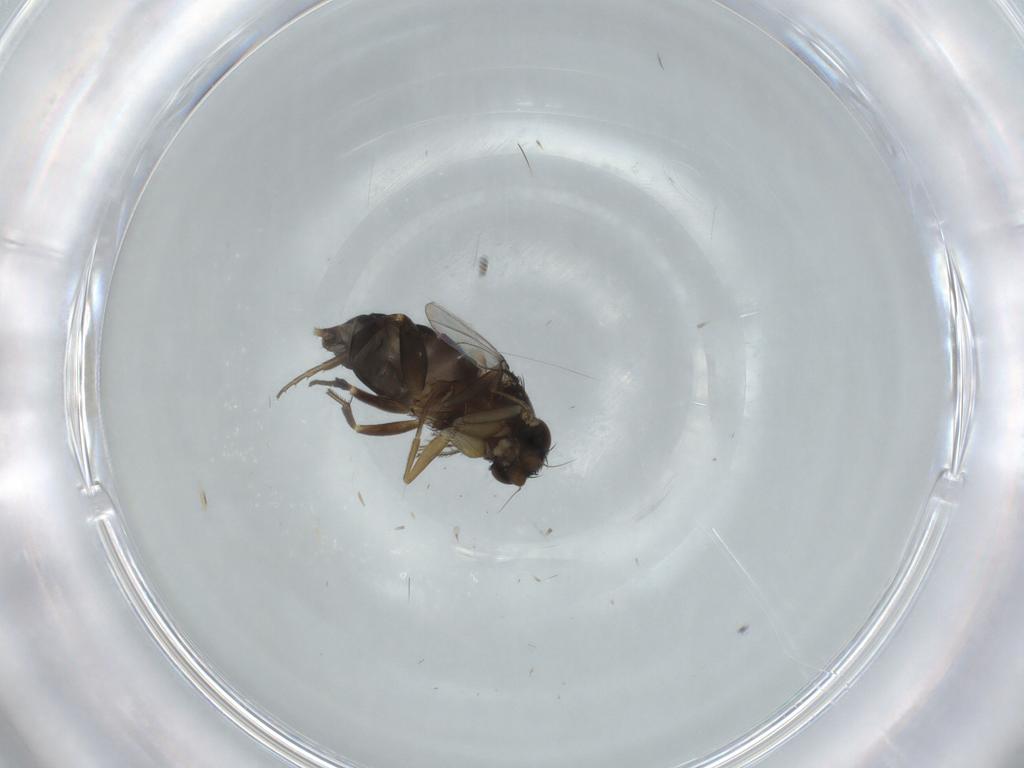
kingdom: Animalia
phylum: Arthropoda
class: Insecta
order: Diptera
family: Phoridae
